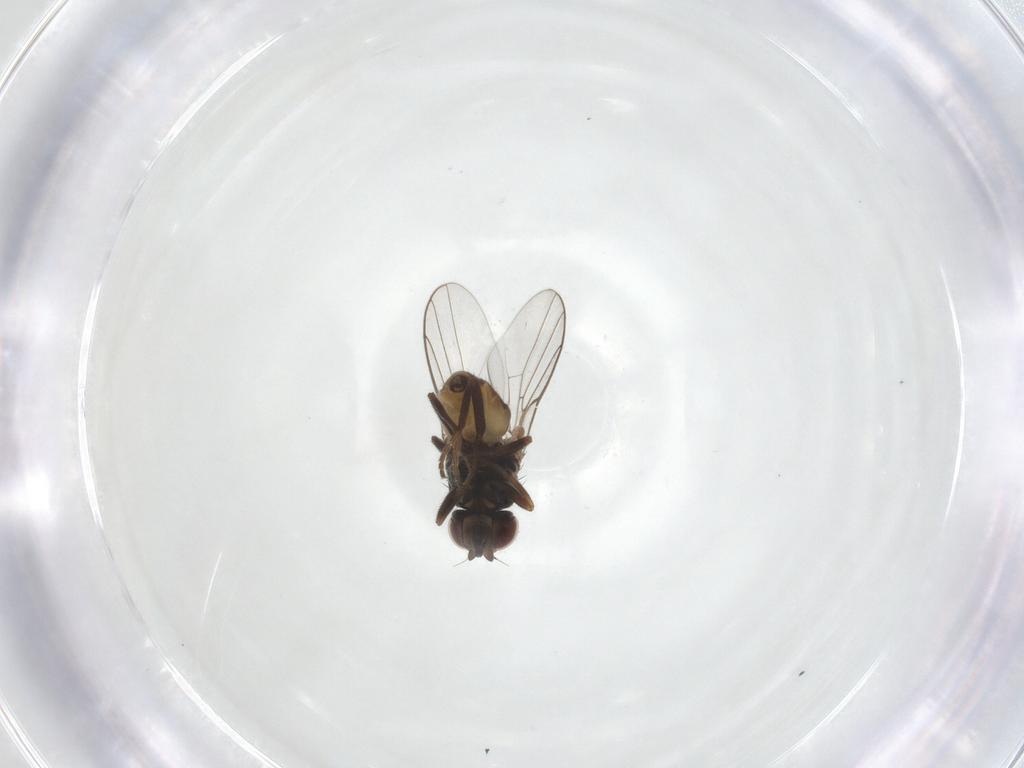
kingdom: Animalia
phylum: Arthropoda
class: Insecta
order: Diptera
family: Chloropidae
